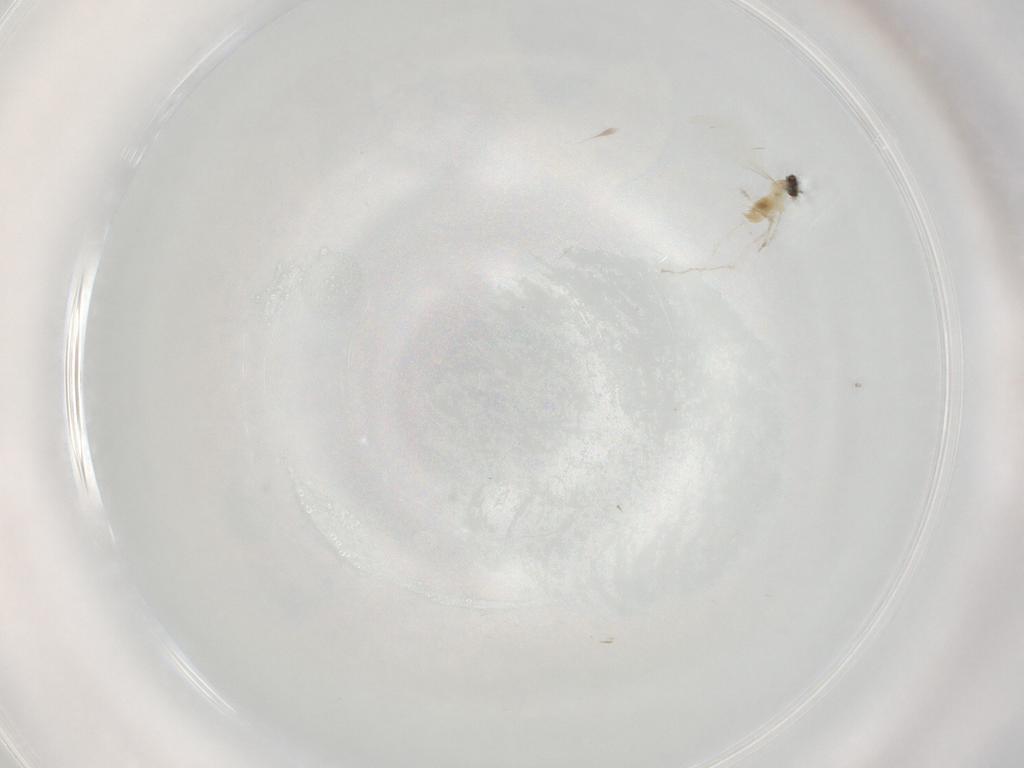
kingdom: Animalia
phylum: Arthropoda
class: Insecta
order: Diptera
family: Cecidomyiidae
